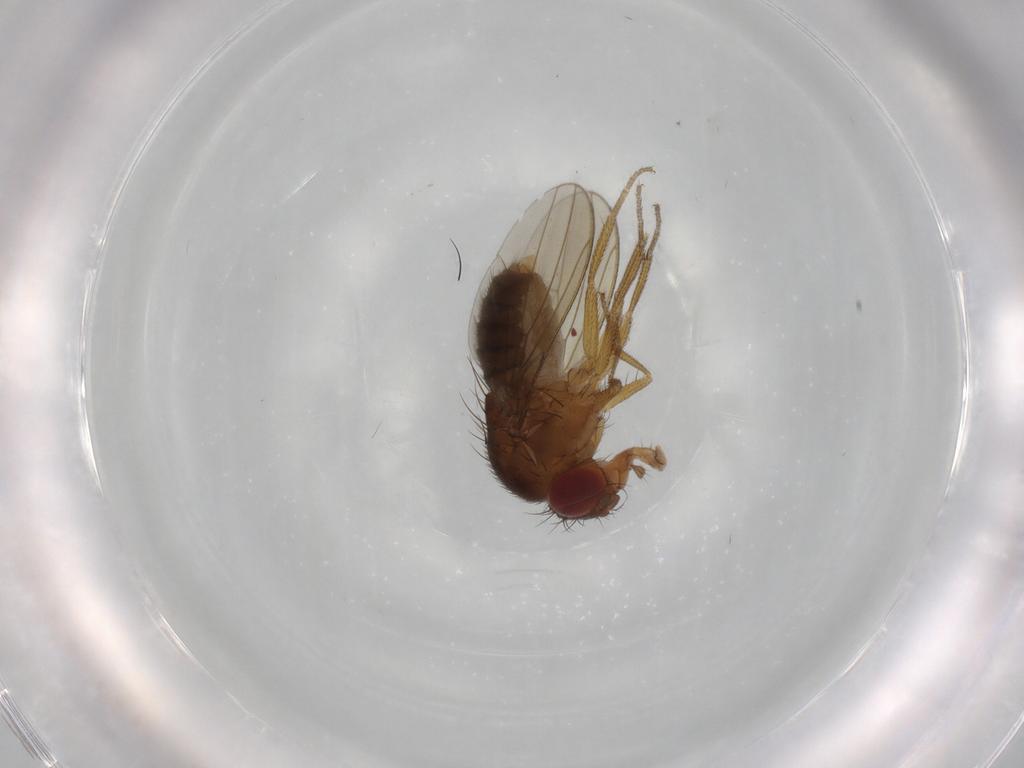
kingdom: Animalia
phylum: Arthropoda
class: Insecta
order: Diptera
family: Drosophilidae
